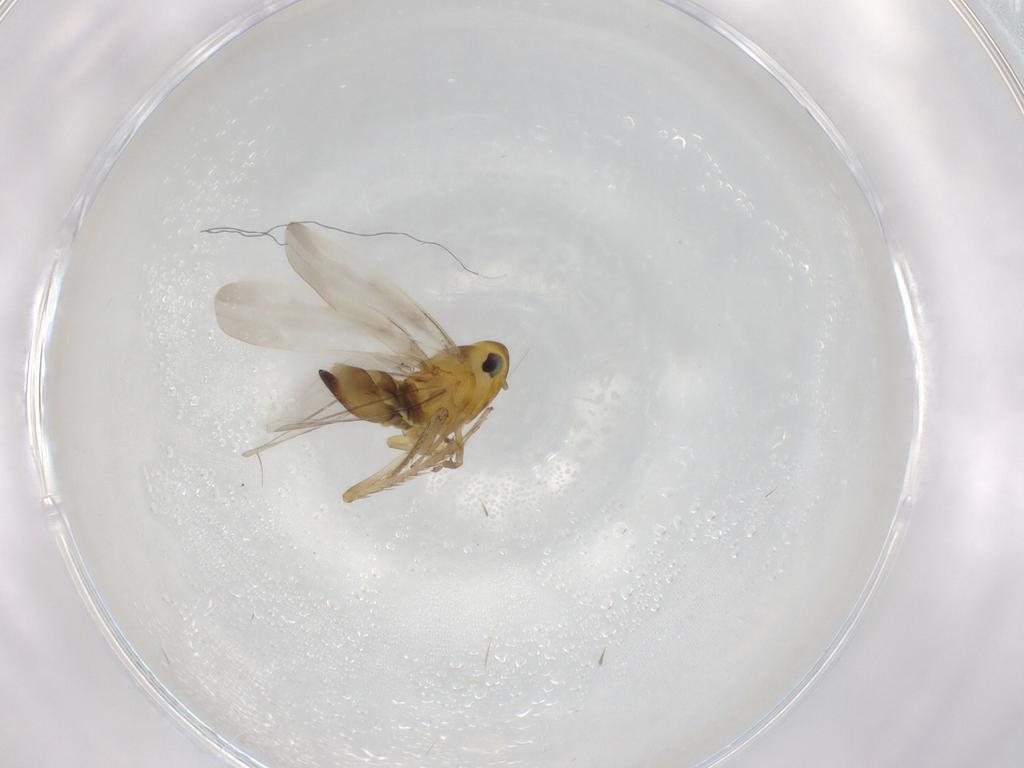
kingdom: Animalia
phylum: Arthropoda
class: Insecta
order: Hemiptera
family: Cicadellidae
